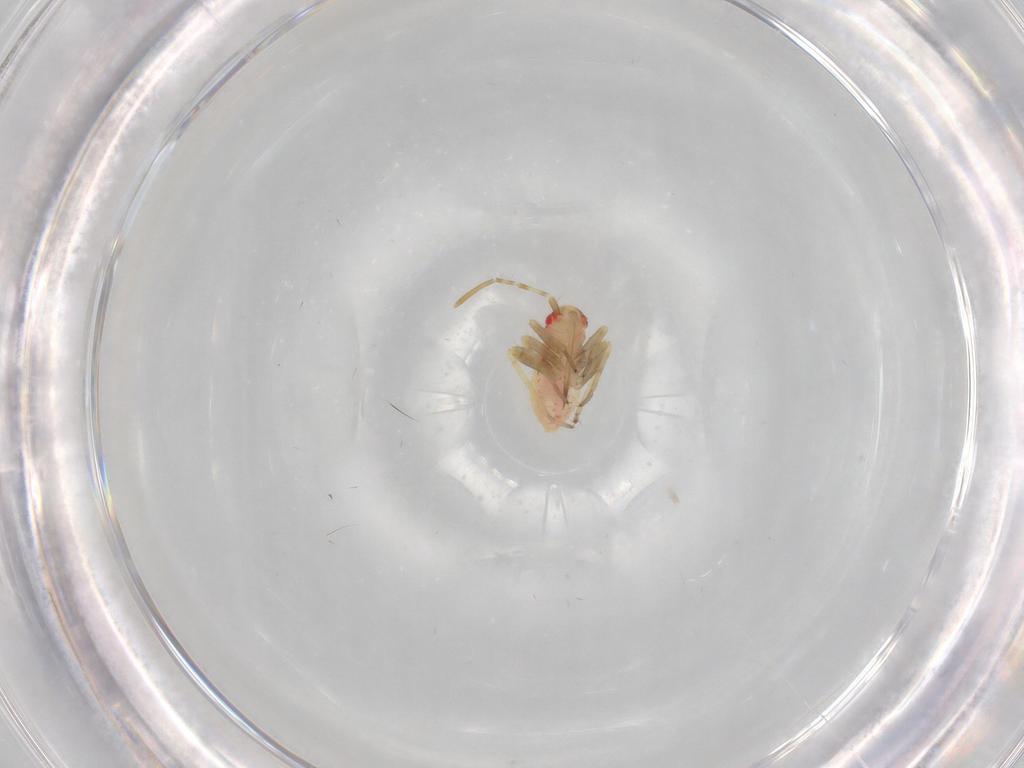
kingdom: Animalia
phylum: Arthropoda
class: Insecta
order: Hemiptera
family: Miridae
